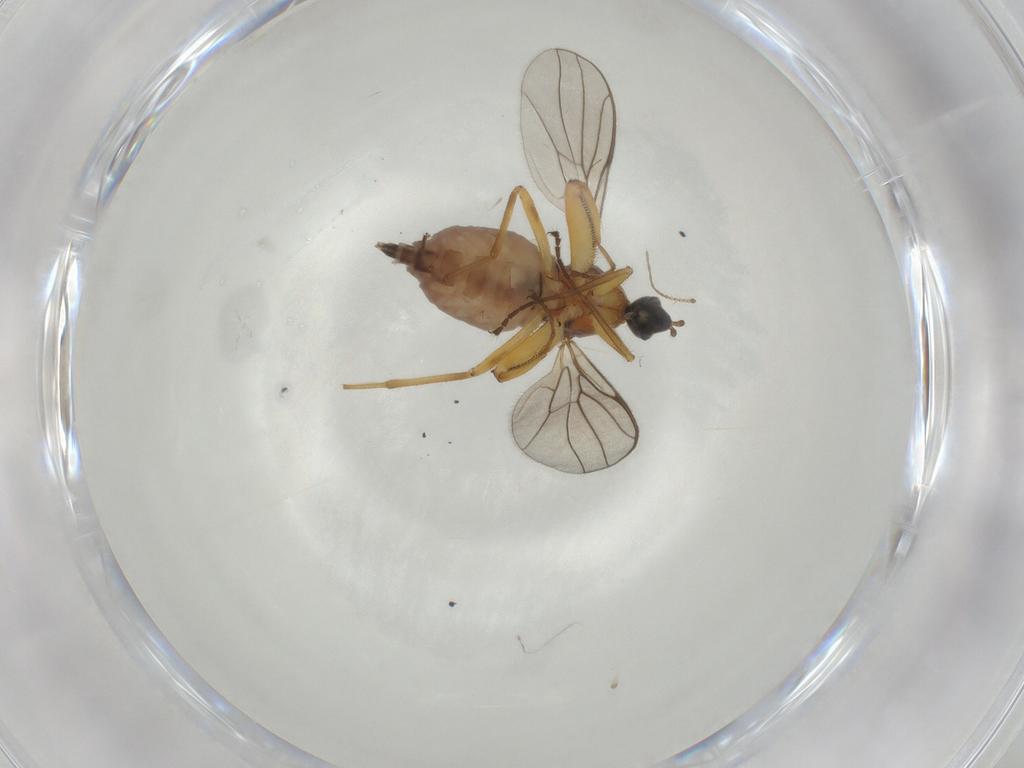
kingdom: Animalia
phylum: Arthropoda
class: Insecta
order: Diptera
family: Hybotidae
